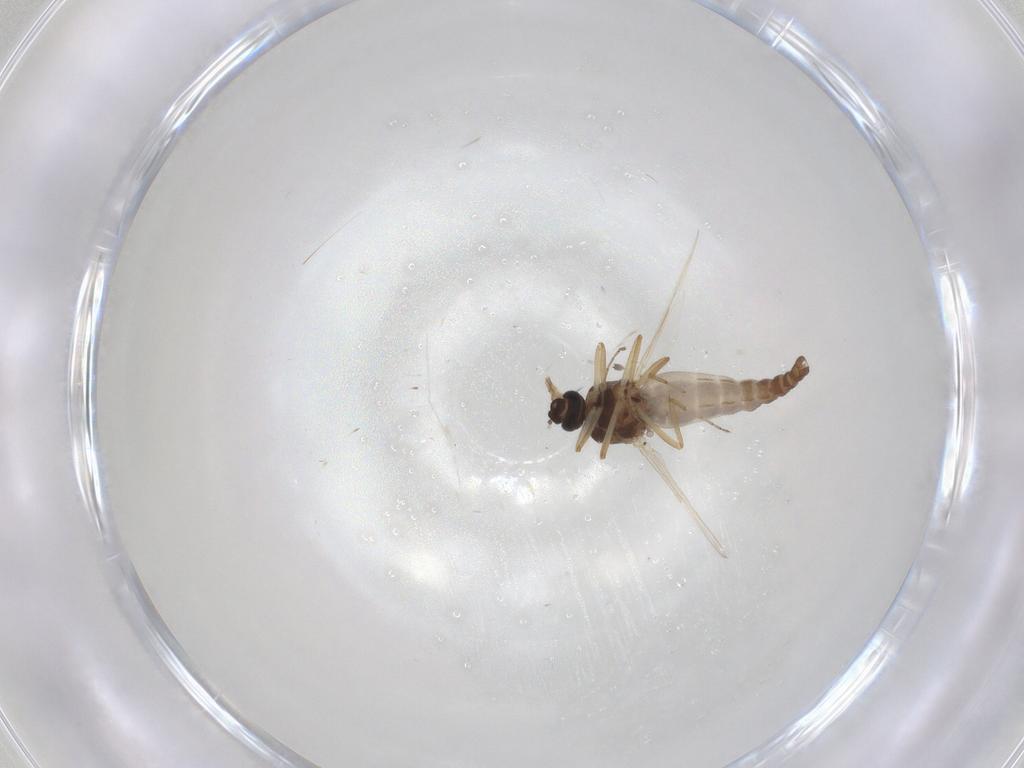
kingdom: Animalia
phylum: Arthropoda
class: Insecta
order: Diptera
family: Ceratopogonidae
